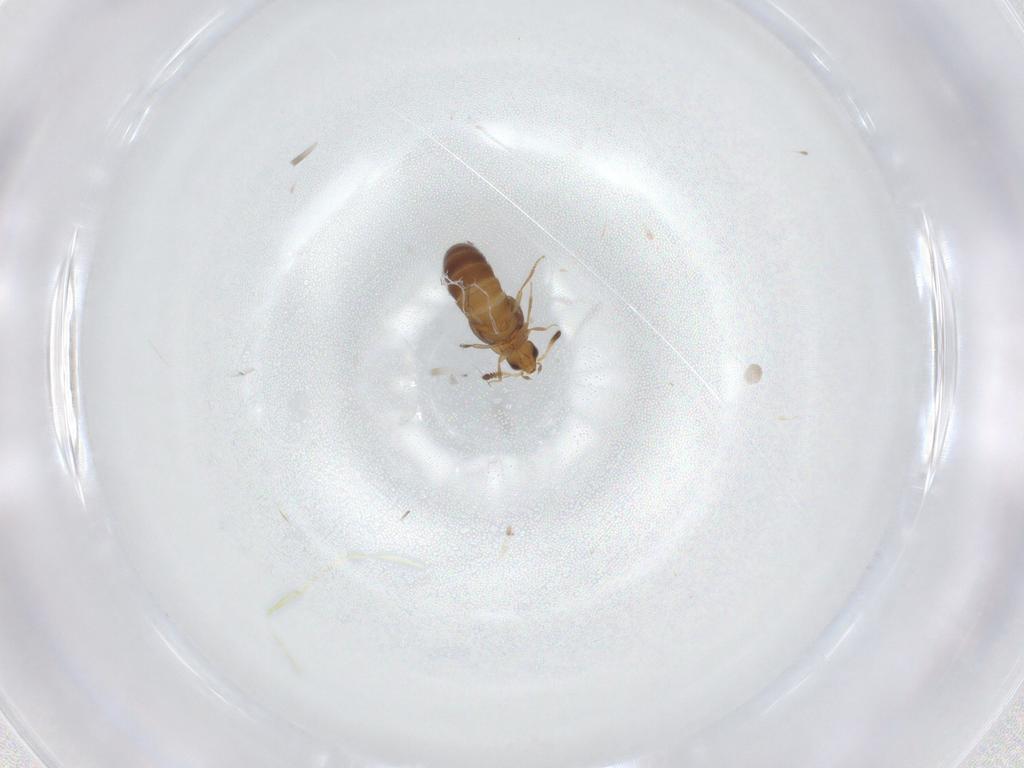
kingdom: Animalia
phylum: Arthropoda
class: Insecta
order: Coleoptera
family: Staphylinidae
